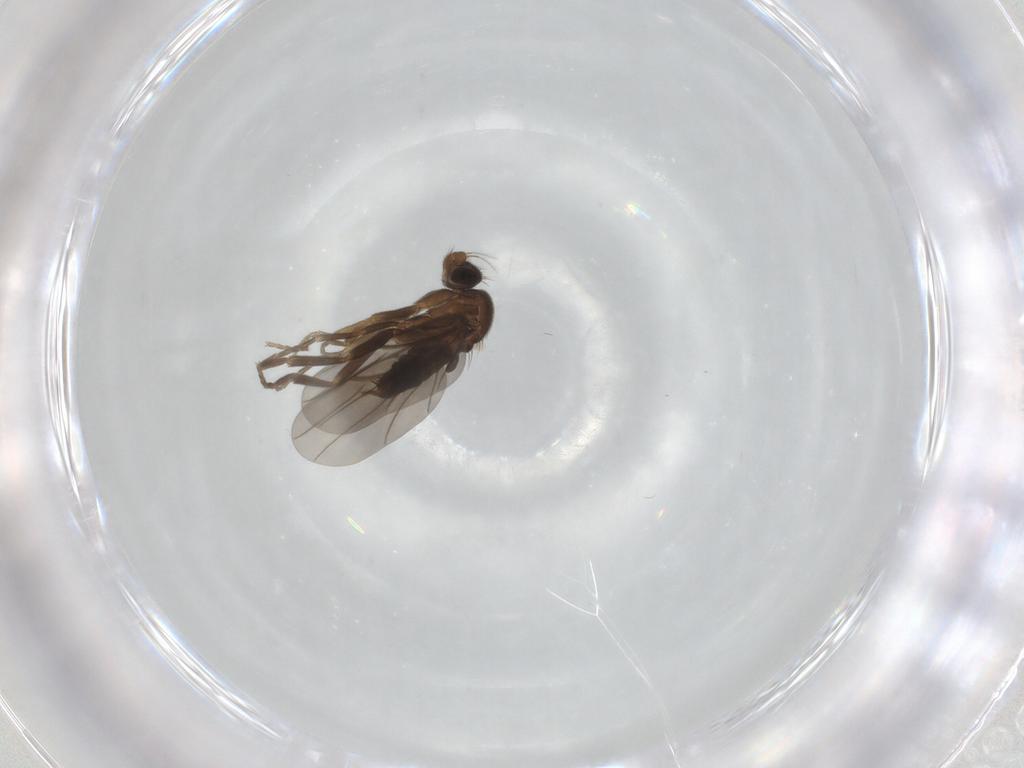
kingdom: Animalia
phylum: Arthropoda
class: Insecta
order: Diptera
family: Phoridae
